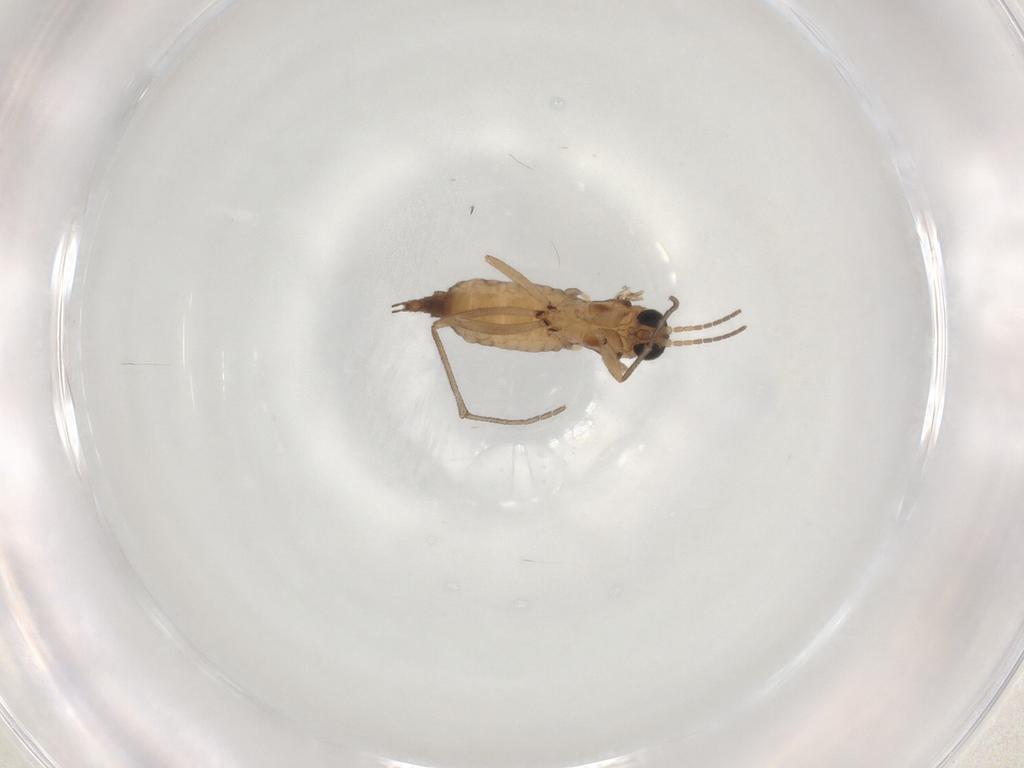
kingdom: Animalia
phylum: Arthropoda
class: Insecta
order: Diptera
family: Sciaridae
